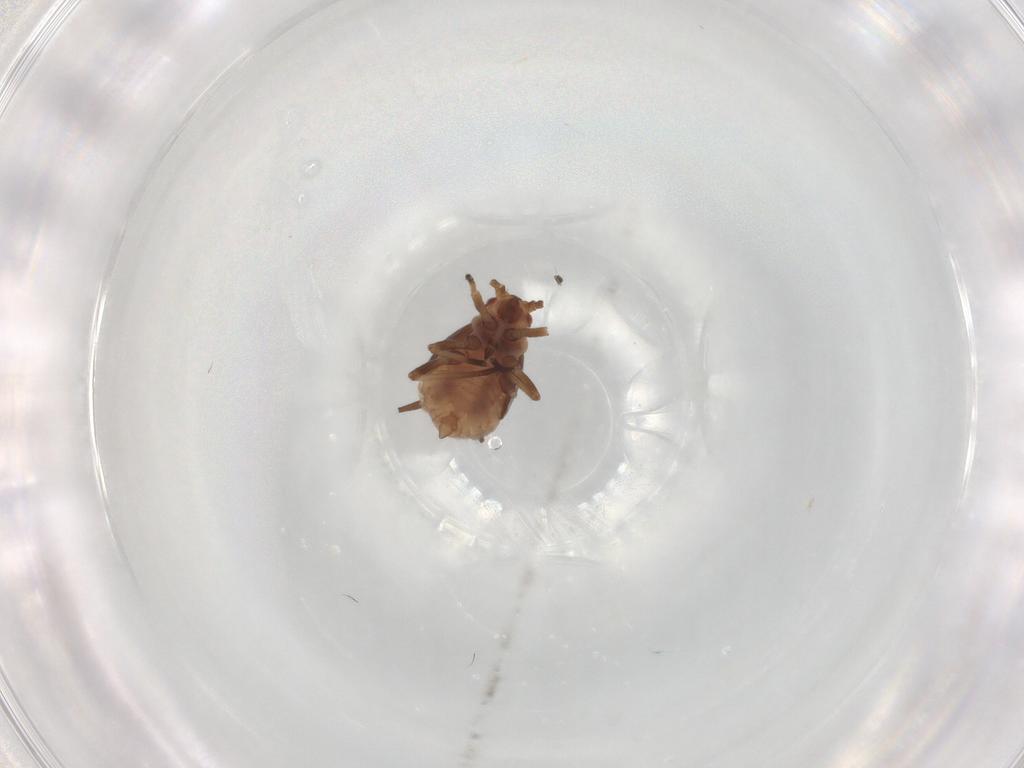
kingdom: Animalia
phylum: Arthropoda
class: Insecta
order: Hemiptera
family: Aphididae
